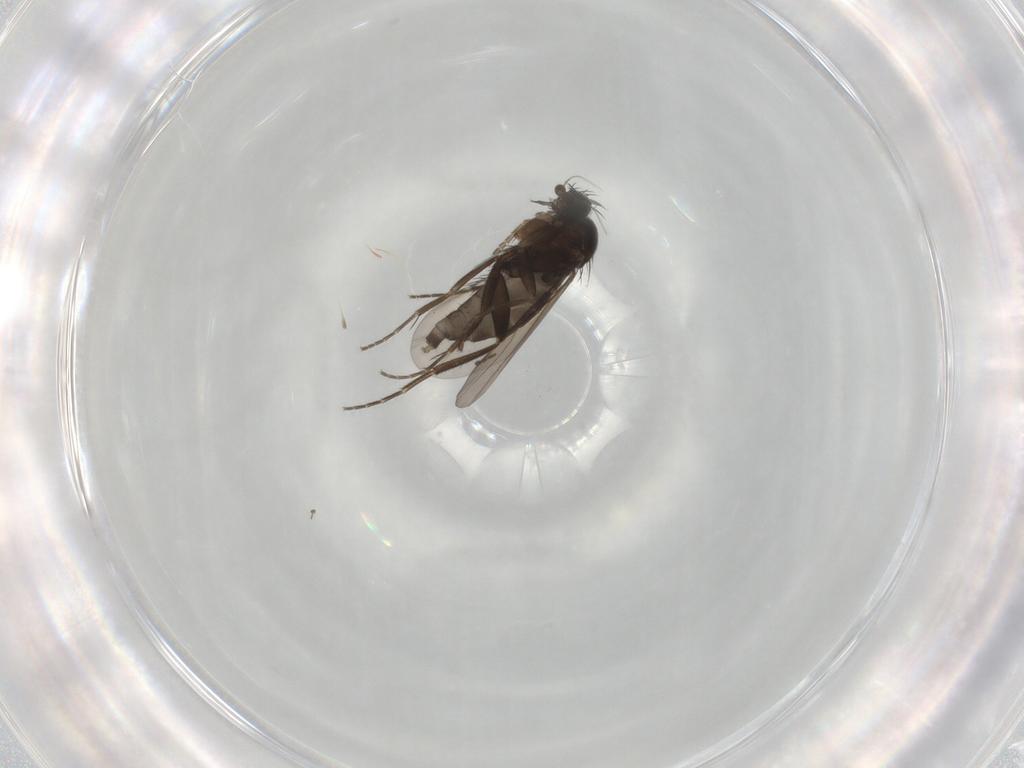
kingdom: Animalia
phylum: Arthropoda
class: Insecta
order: Diptera
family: Phoridae
